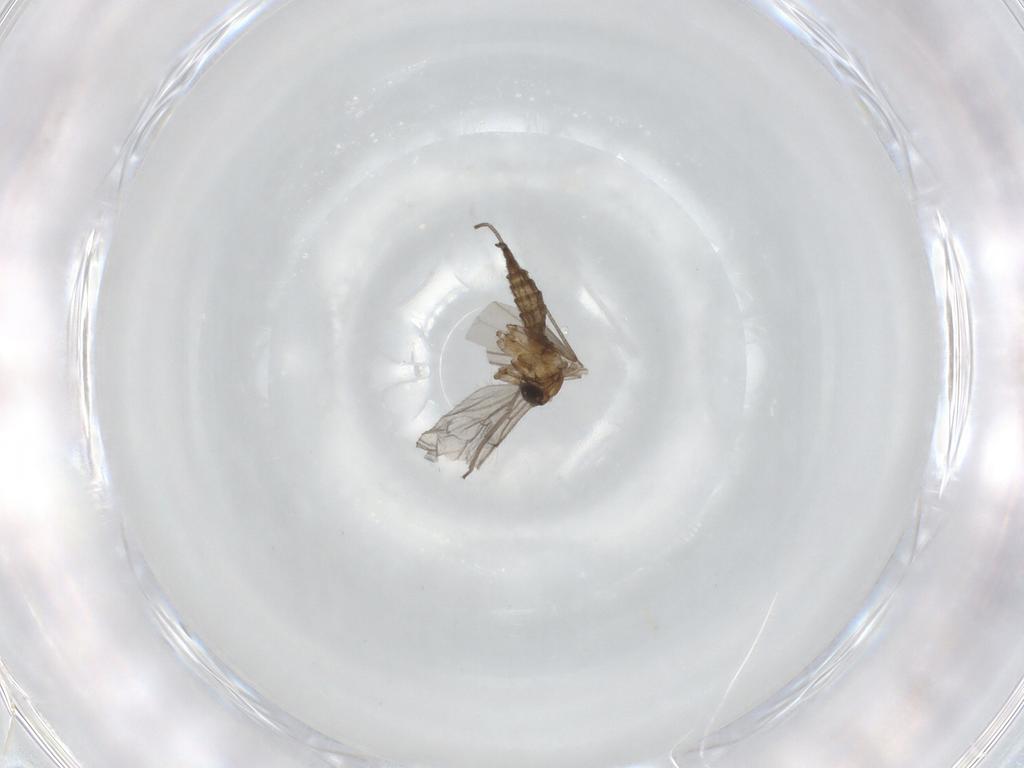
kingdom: Animalia
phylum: Arthropoda
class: Insecta
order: Diptera
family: Sciaridae
